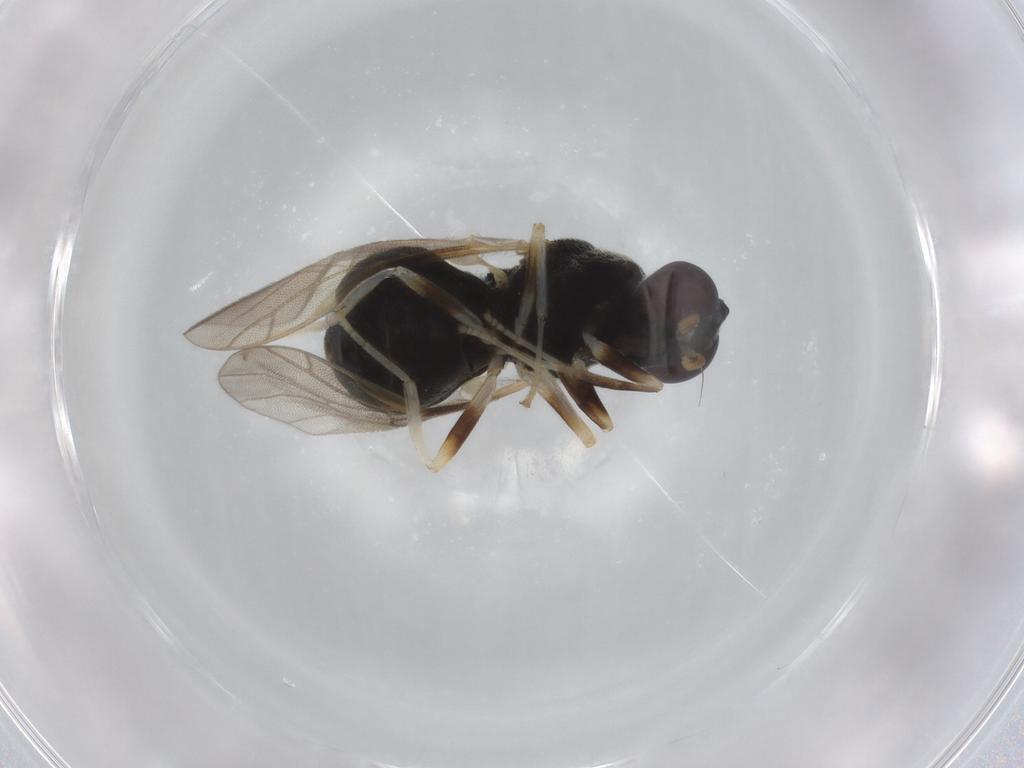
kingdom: Animalia
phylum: Arthropoda
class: Insecta
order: Diptera
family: Stratiomyidae
